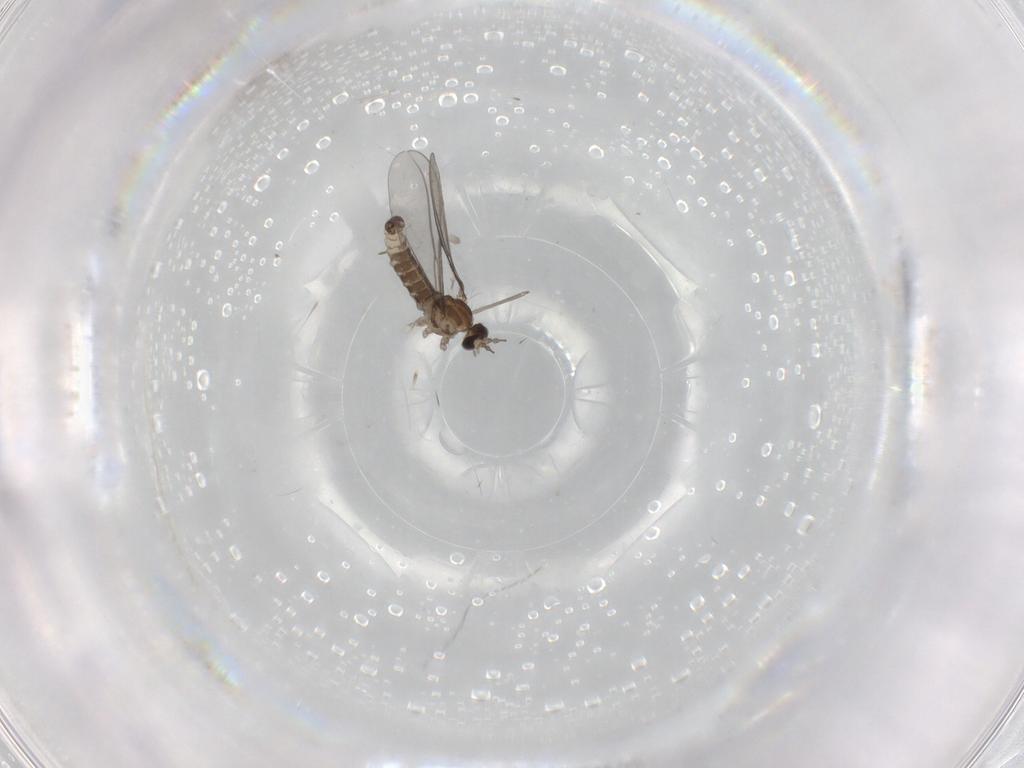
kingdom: Animalia
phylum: Arthropoda
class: Insecta
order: Diptera
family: Cecidomyiidae
